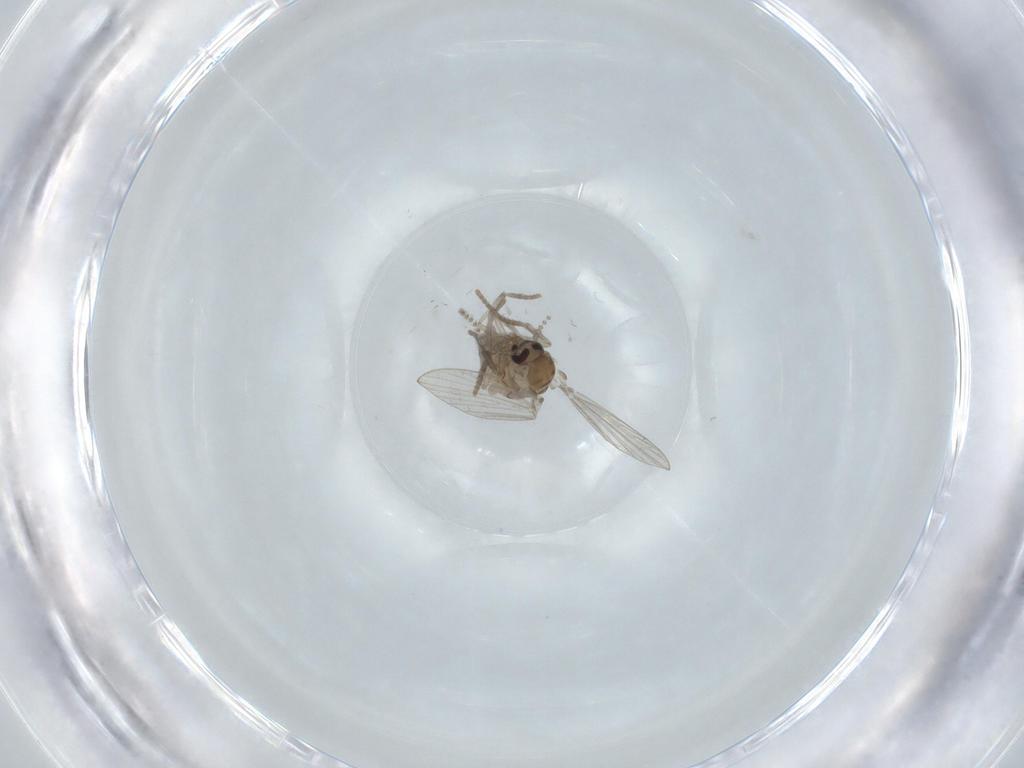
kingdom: Animalia
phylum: Arthropoda
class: Insecta
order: Diptera
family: Psychodidae
